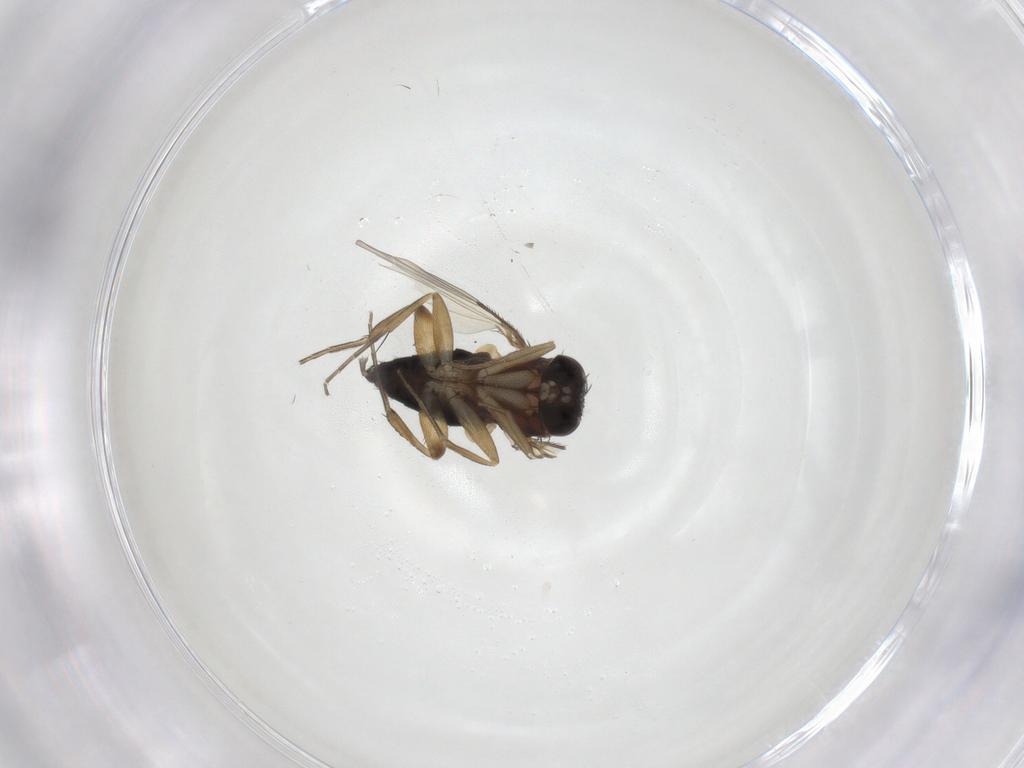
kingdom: Animalia
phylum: Arthropoda
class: Insecta
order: Diptera
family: Phoridae
